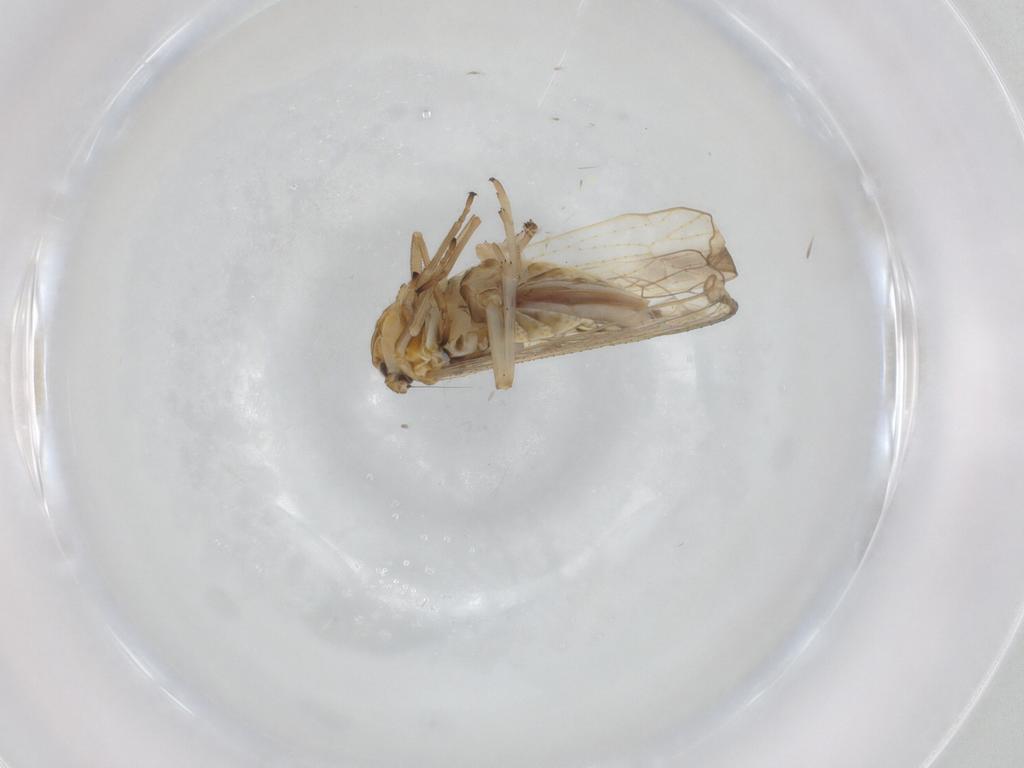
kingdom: Animalia
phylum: Arthropoda
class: Insecta
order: Hemiptera
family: Delphacidae
